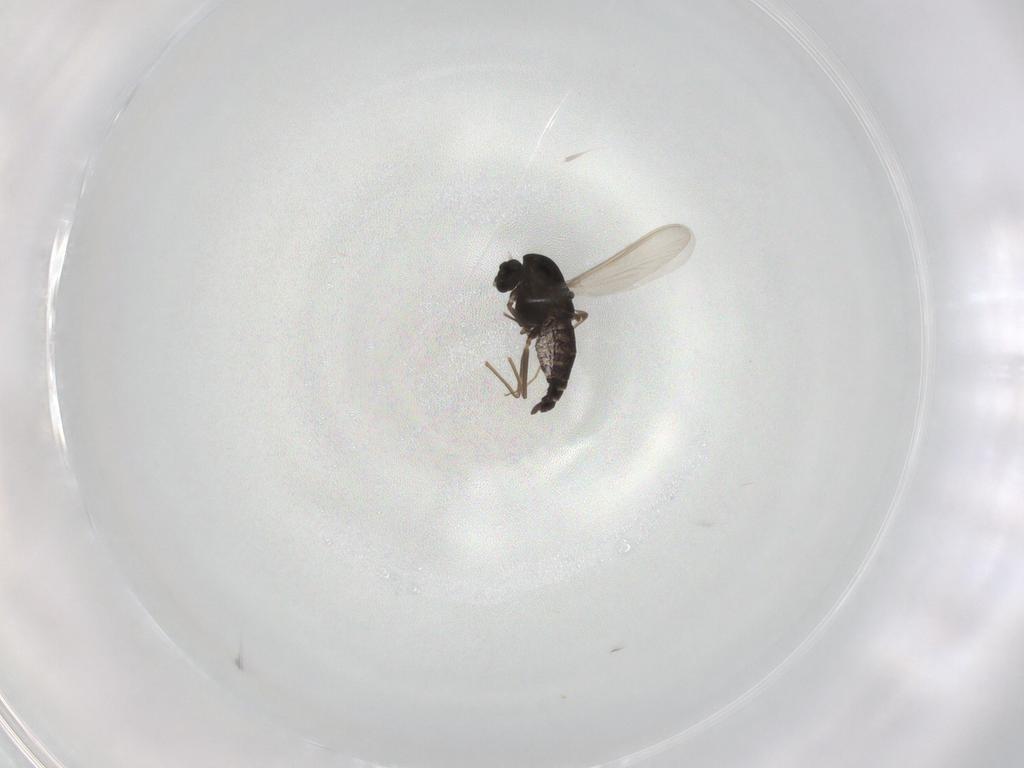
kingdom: Animalia
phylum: Arthropoda
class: Insecta
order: Diptera
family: Chironomidae
